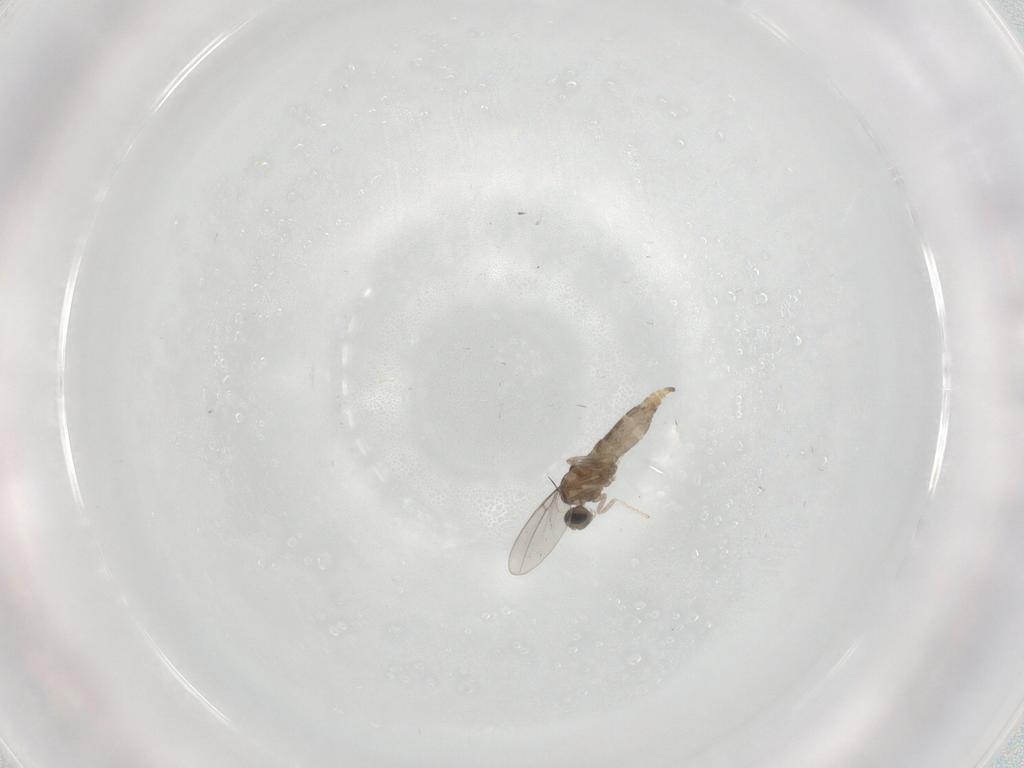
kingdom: Animalia
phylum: Arthropoda
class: Insecta
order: Diptera
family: Cecidomyiidae
